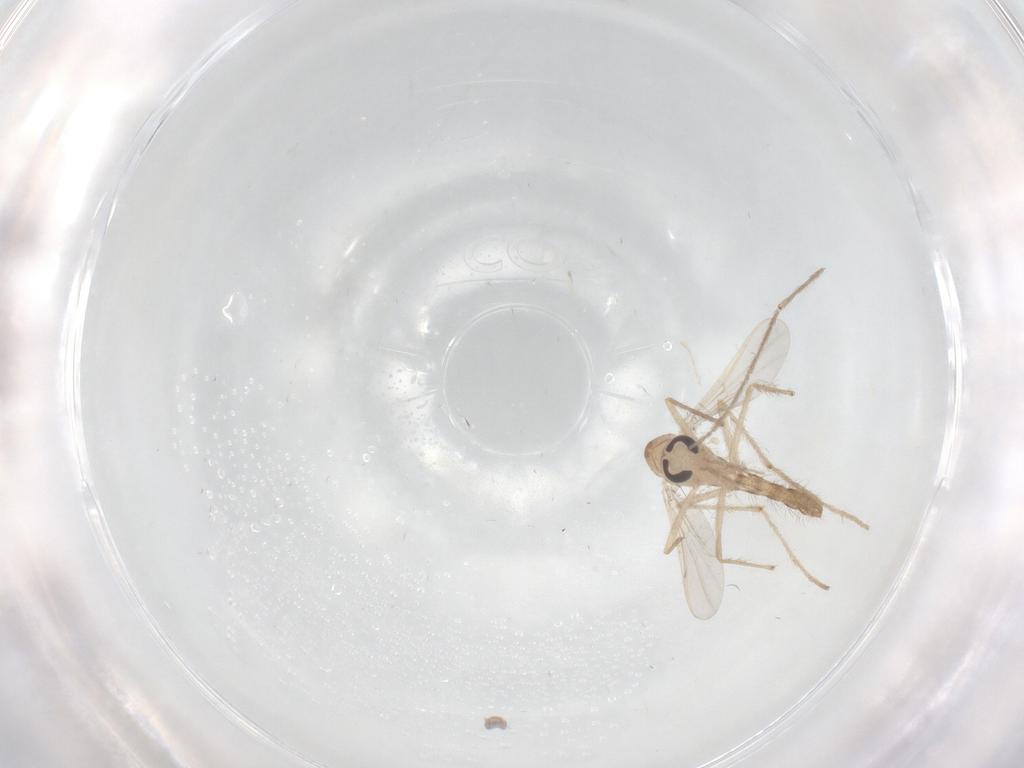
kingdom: Animalia
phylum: Arthropoda
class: Insecta
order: Diptera
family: Chironomidae
